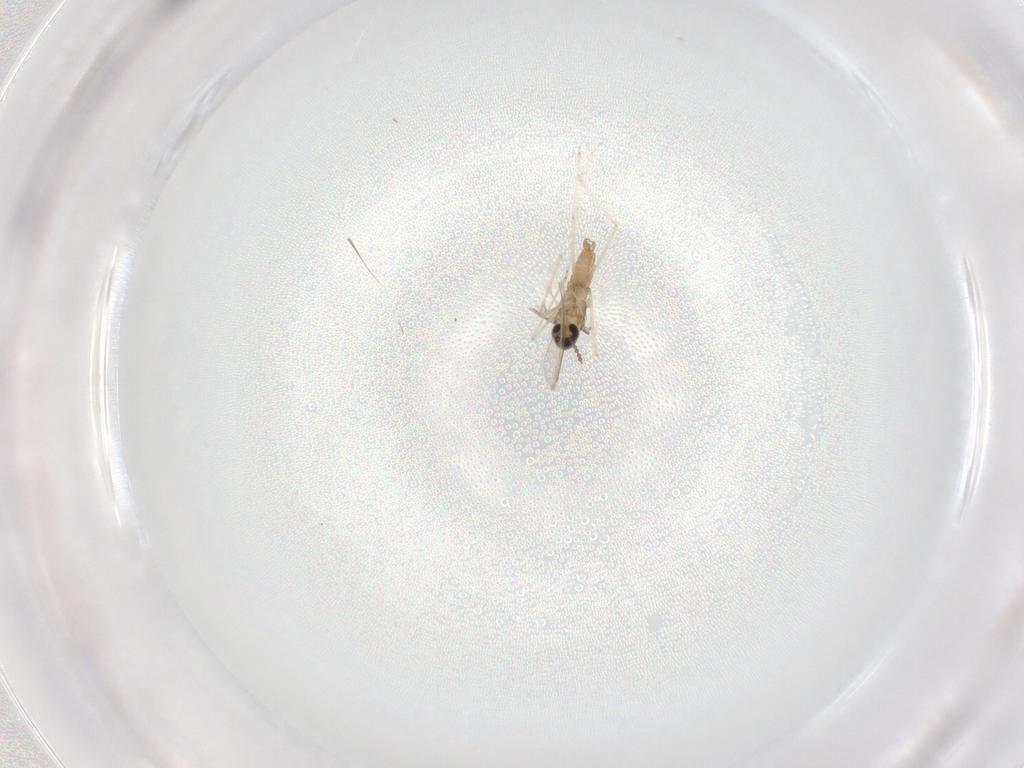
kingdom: Animalia
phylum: Arthropoda
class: Insecta
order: Diptera
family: Cecidomyiidae
